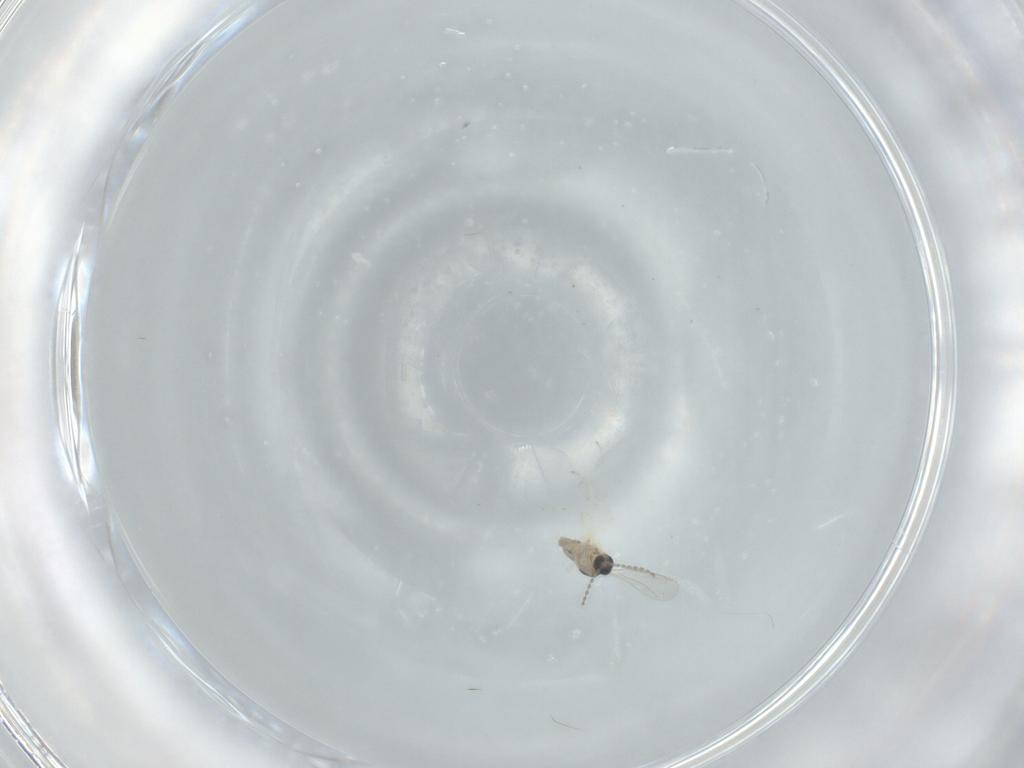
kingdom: Animalia
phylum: Arthropoda
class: Insecta
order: Diptera
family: Cecidomyiidae
